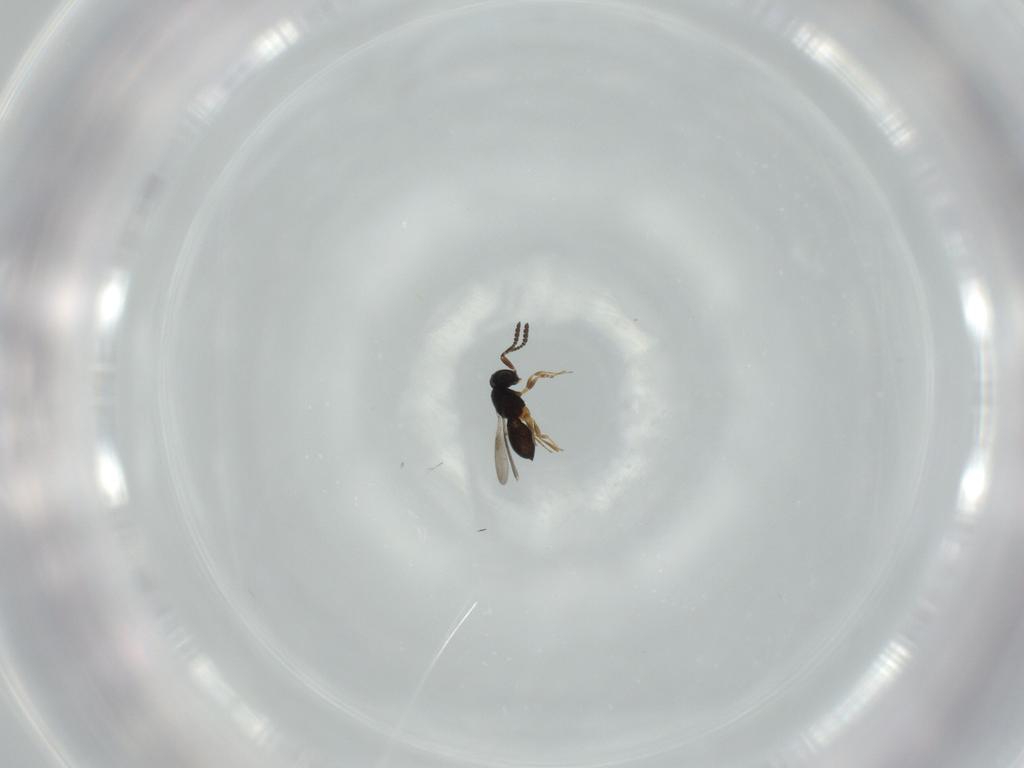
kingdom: Animalia
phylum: Arthropoda
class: Insecta
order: Hymenoptera
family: Scelionidae
